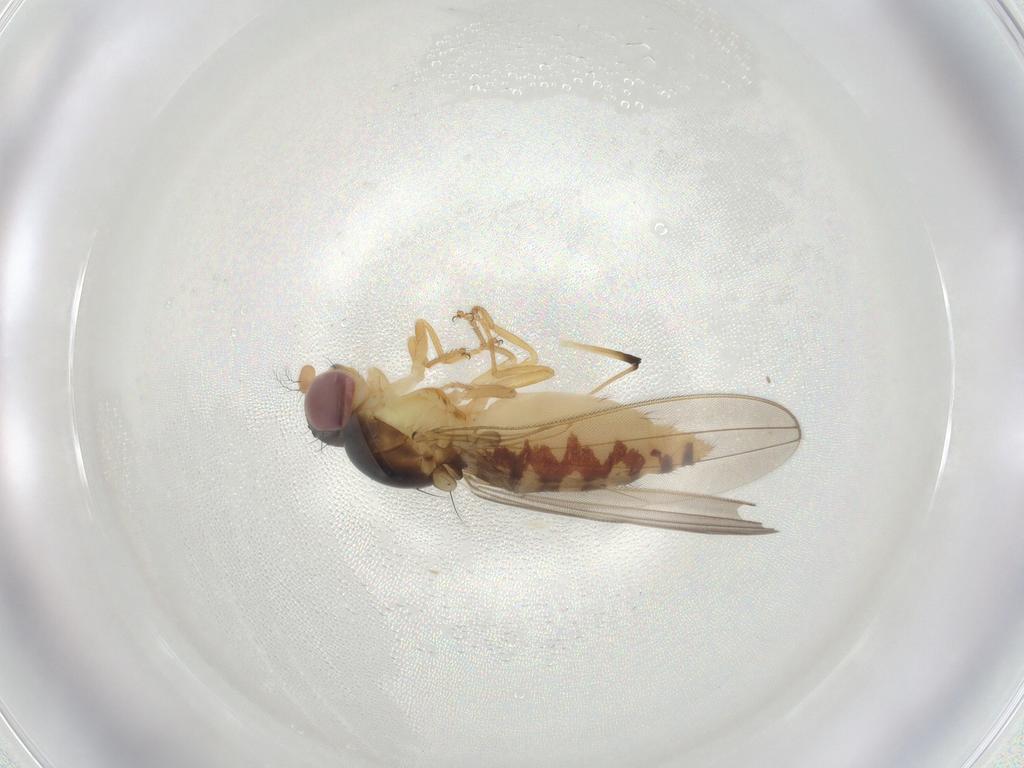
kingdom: Animalia
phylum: Arthropoda
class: Insecta
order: Diptera
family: Asteiidae
